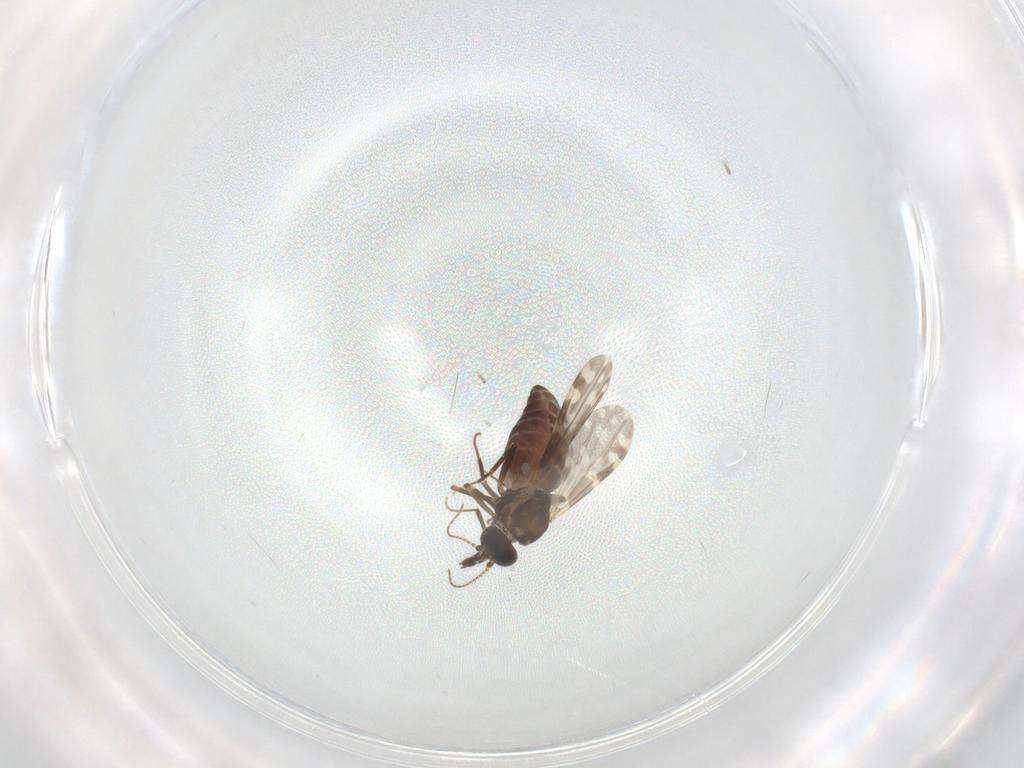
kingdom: Animalia
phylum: Arthropoda
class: Insecta
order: Diptera
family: Ceratopogonidae
